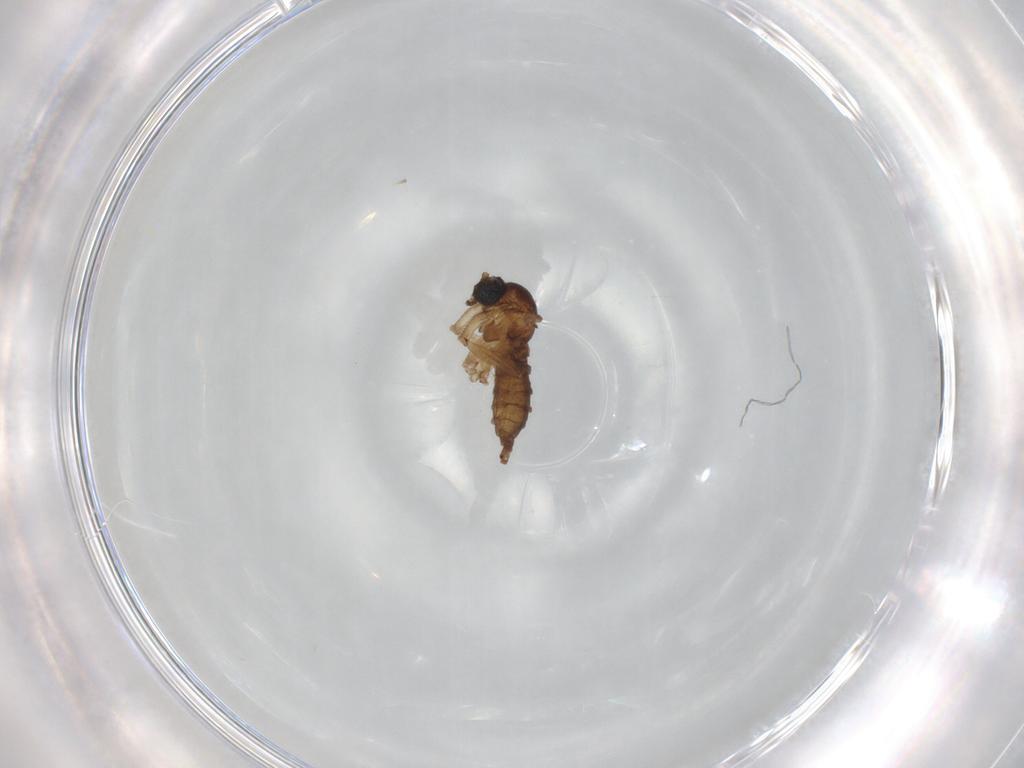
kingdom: Animalia
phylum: Arthropoda
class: Insecta
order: Diptera
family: Sciaridae
